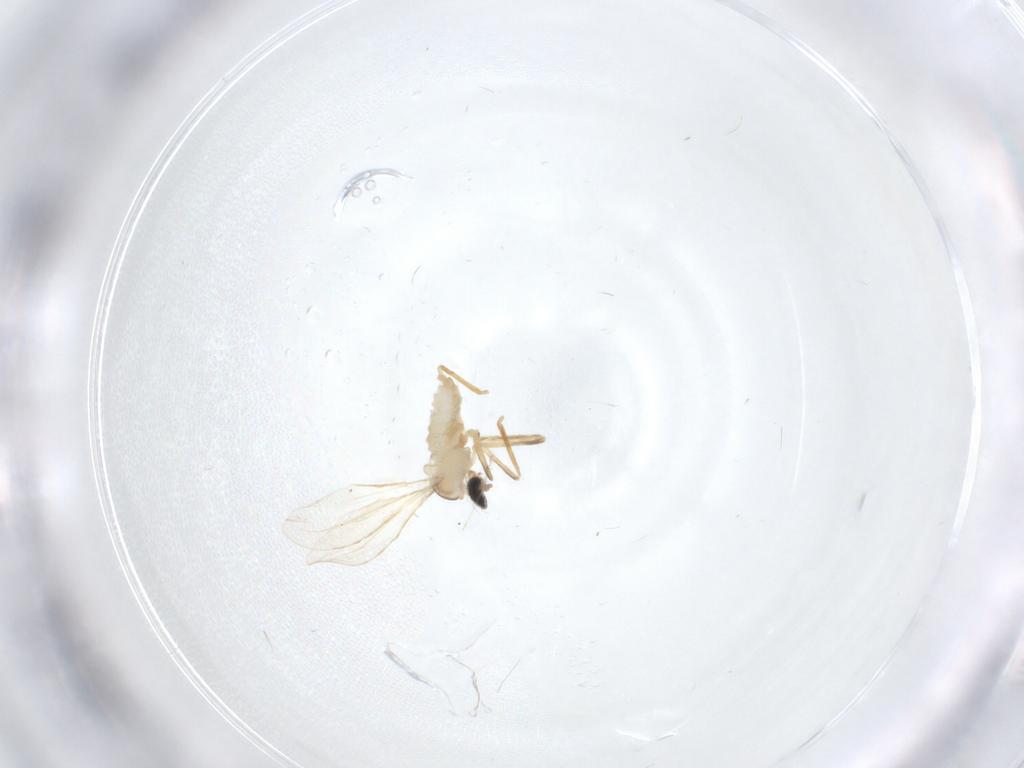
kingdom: Animalia
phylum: Arthropoda
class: Insecta
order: Diptera
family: Cecidomyiidae
